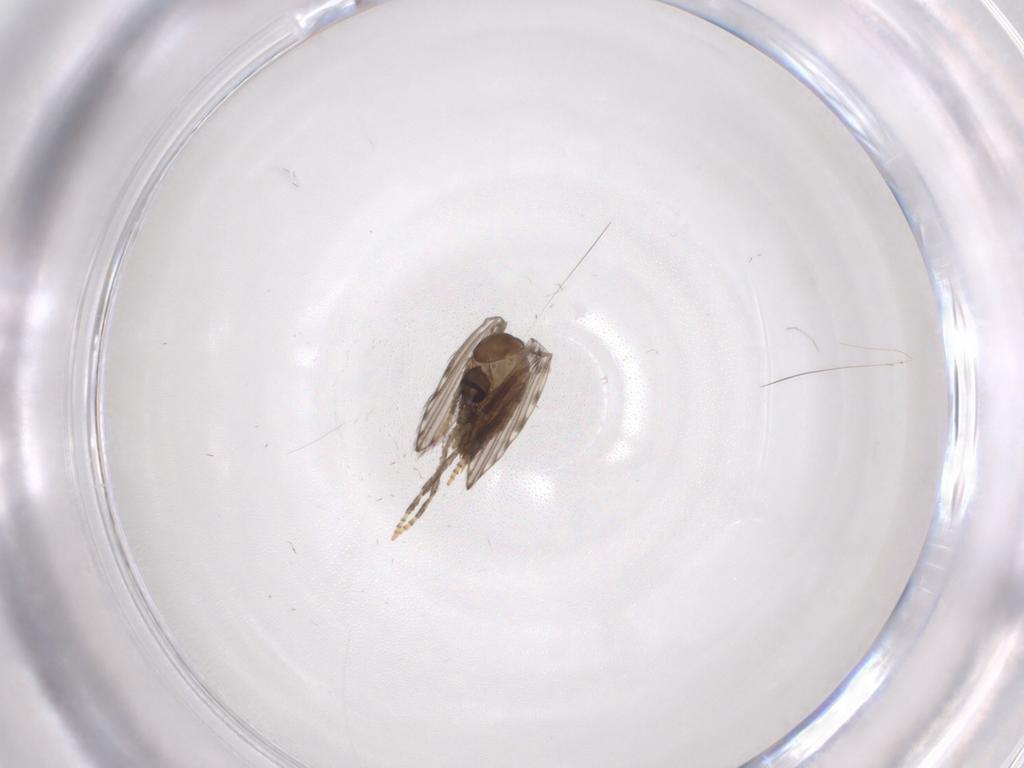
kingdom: Animalia
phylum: Arthropoda
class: Insecta
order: Diptera
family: Psychodidae
